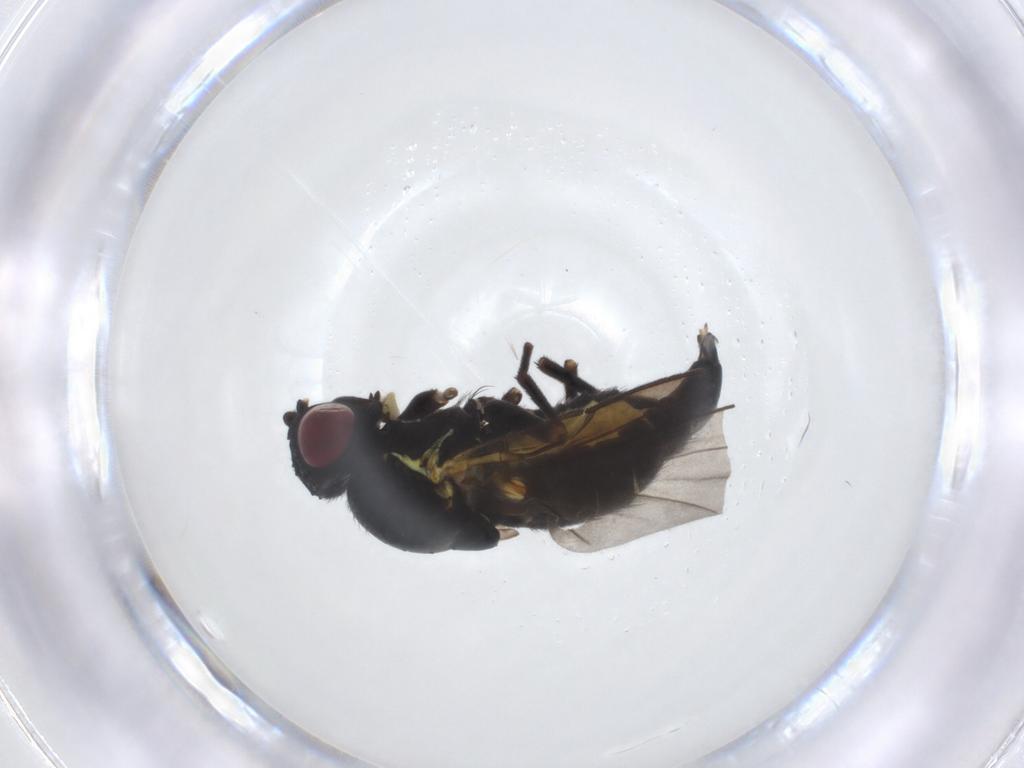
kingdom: Animalia
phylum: Arthropoda
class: Insecta
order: Diptera
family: Agromyzidae
